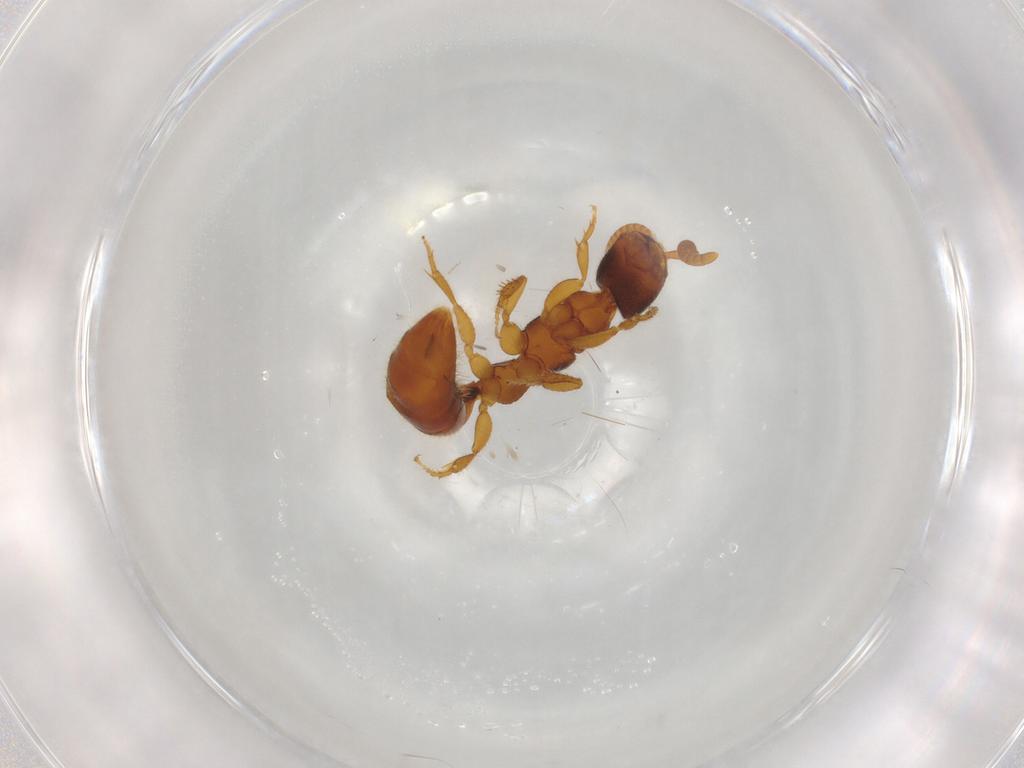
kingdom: Animalia
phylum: Arthropoda
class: Insecta
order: Hymenoptera
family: Bethylidae
